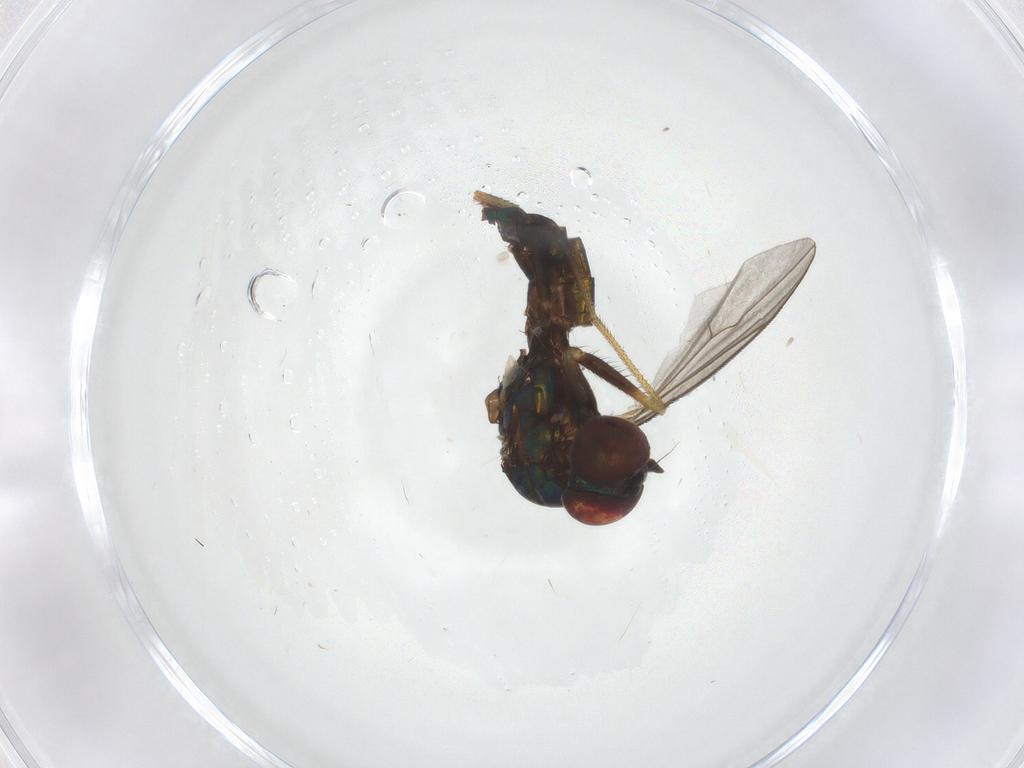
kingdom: Animalia
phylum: Arthropoda
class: Insecta
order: Diptera
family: Dolichopodidae
